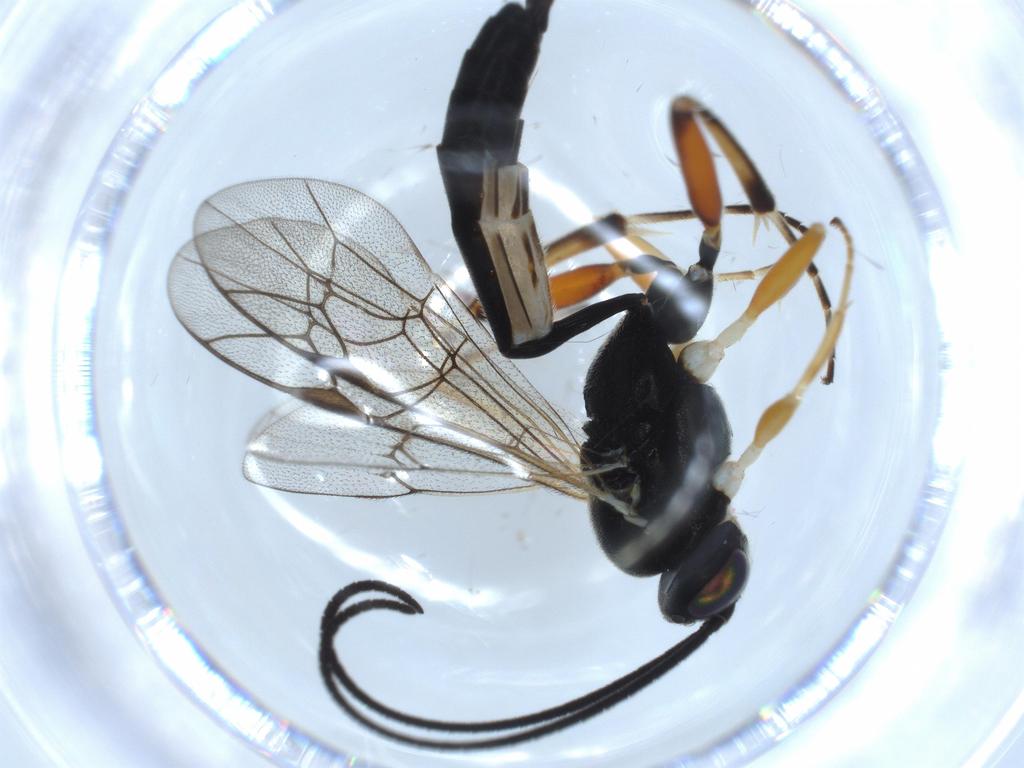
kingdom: Animalia
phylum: Arthropoda
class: Insecta
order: Hymenoptera
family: Ichneumonidae
